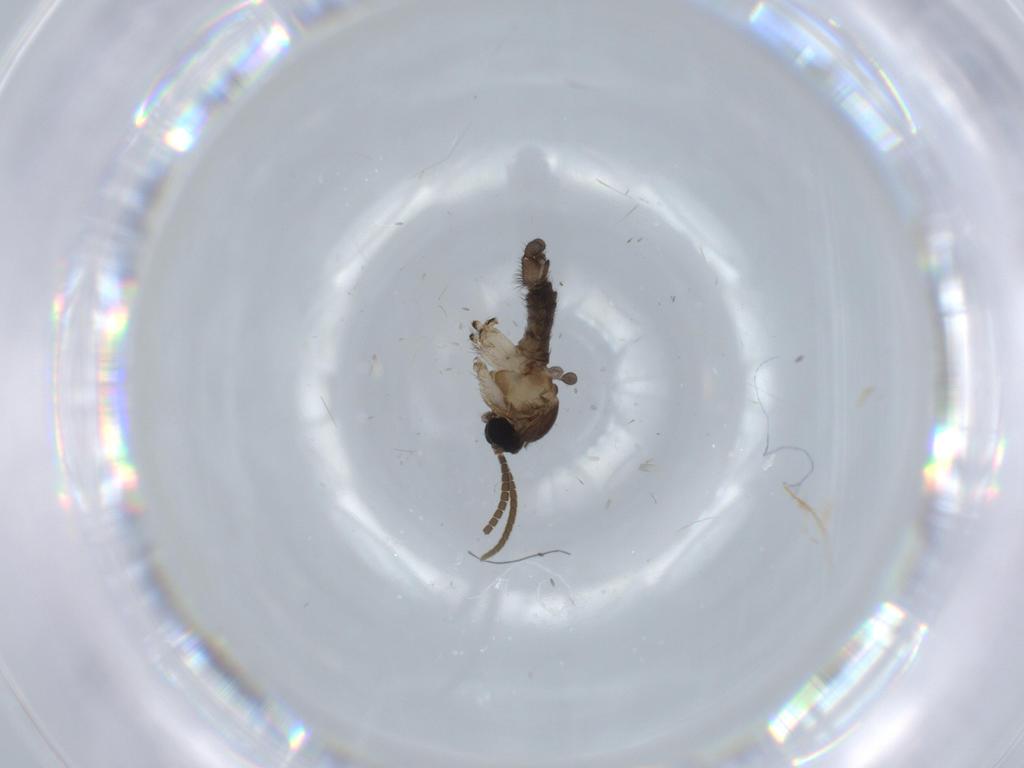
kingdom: Animalia
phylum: Arthropoda
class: Insecta
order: Diptera
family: Sciaridae
